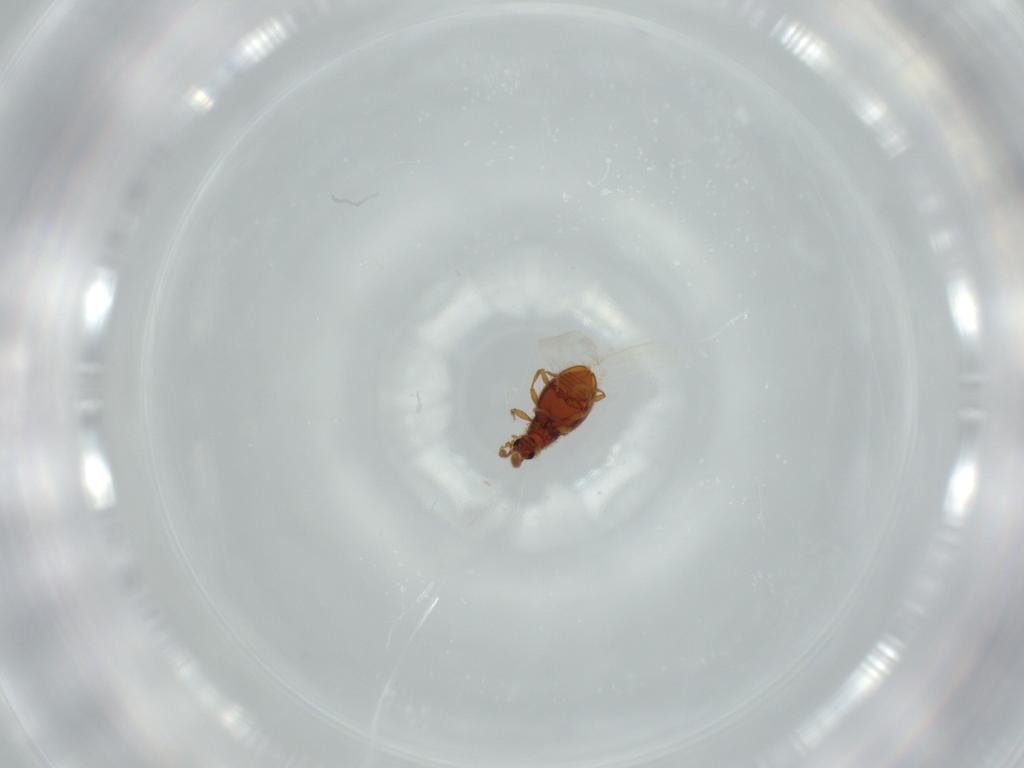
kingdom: Animalia
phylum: Arthropoda
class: Insecta
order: Coleoptera
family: Staphylinidae
